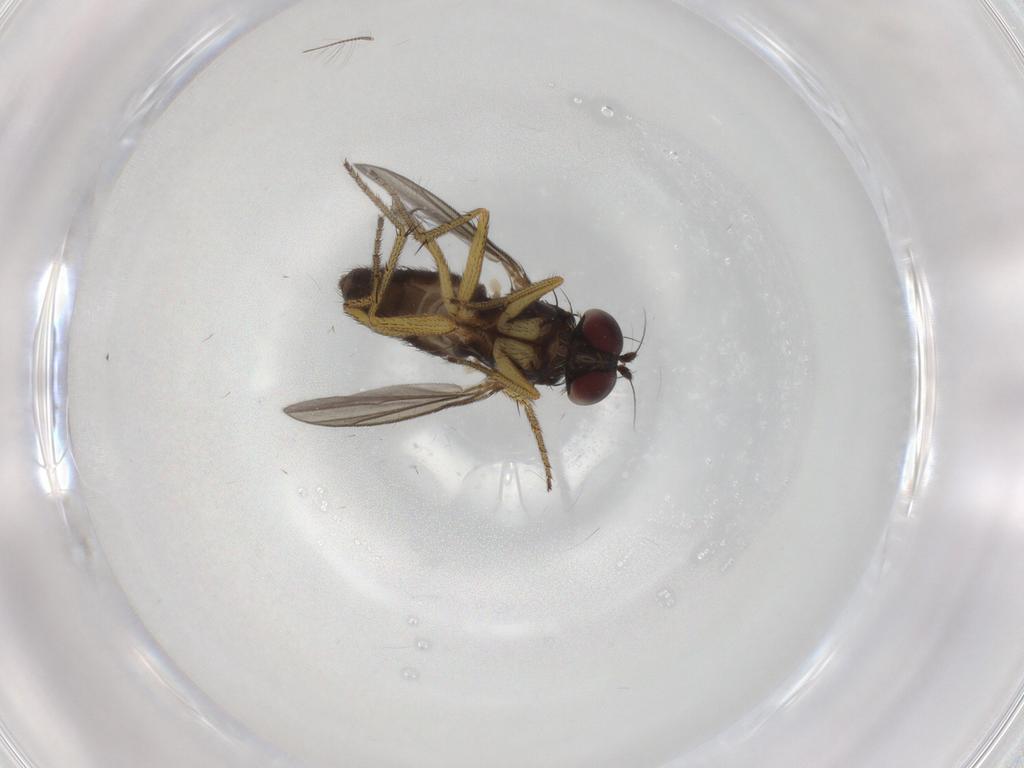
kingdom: Animalia
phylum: Arthropoda
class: Insecta
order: Diptera
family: Dolichopodidae
